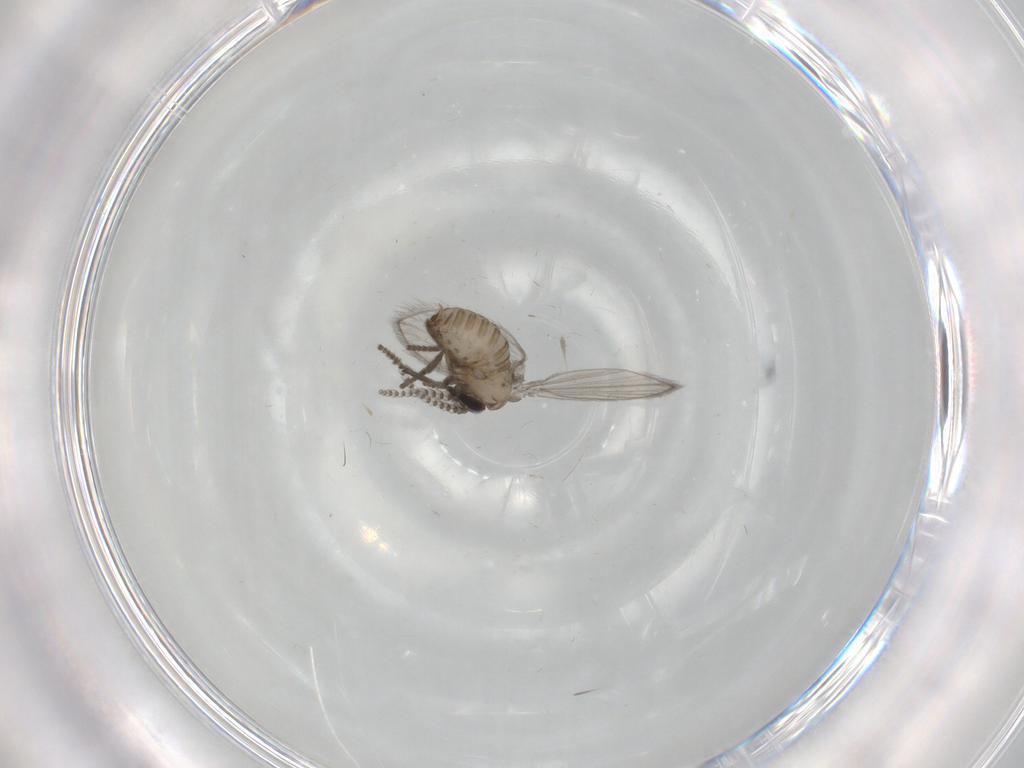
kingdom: Animalia
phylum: Arthropoda
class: Insecta
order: Diptera
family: Psychodidae
